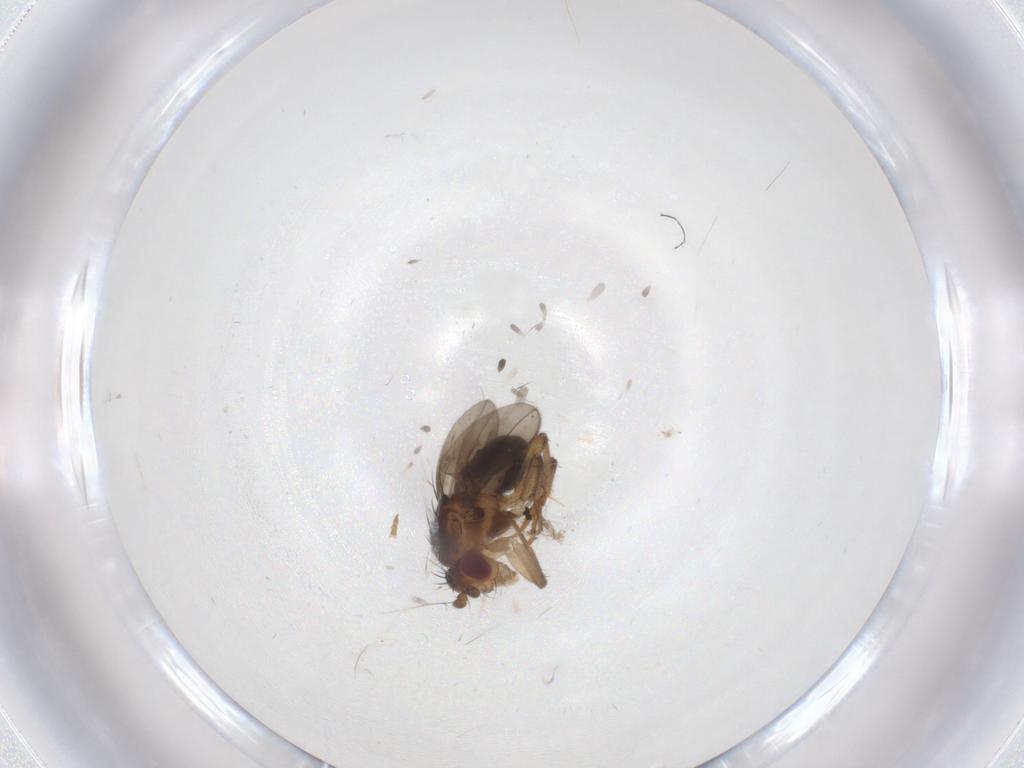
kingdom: Animalia
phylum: Arthropoda
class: Insecta
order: Diptera
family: Sphaeroceridae
